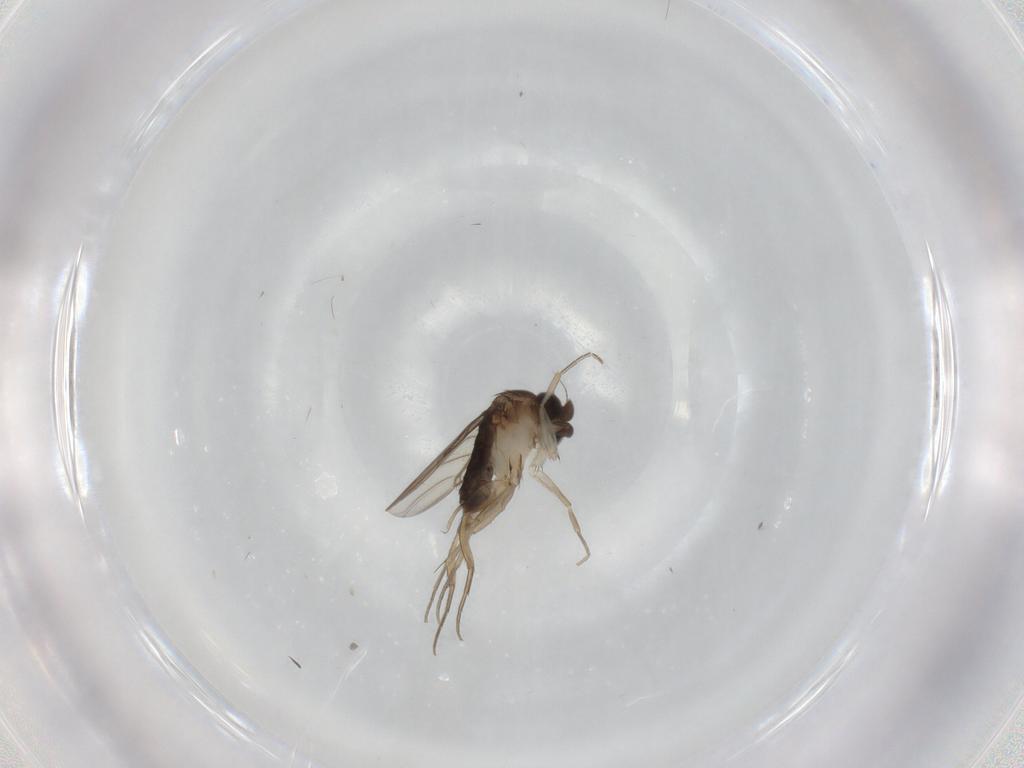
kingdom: Animalia
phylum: Arthropoda
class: Insecta
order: Diptera
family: Phoridae
